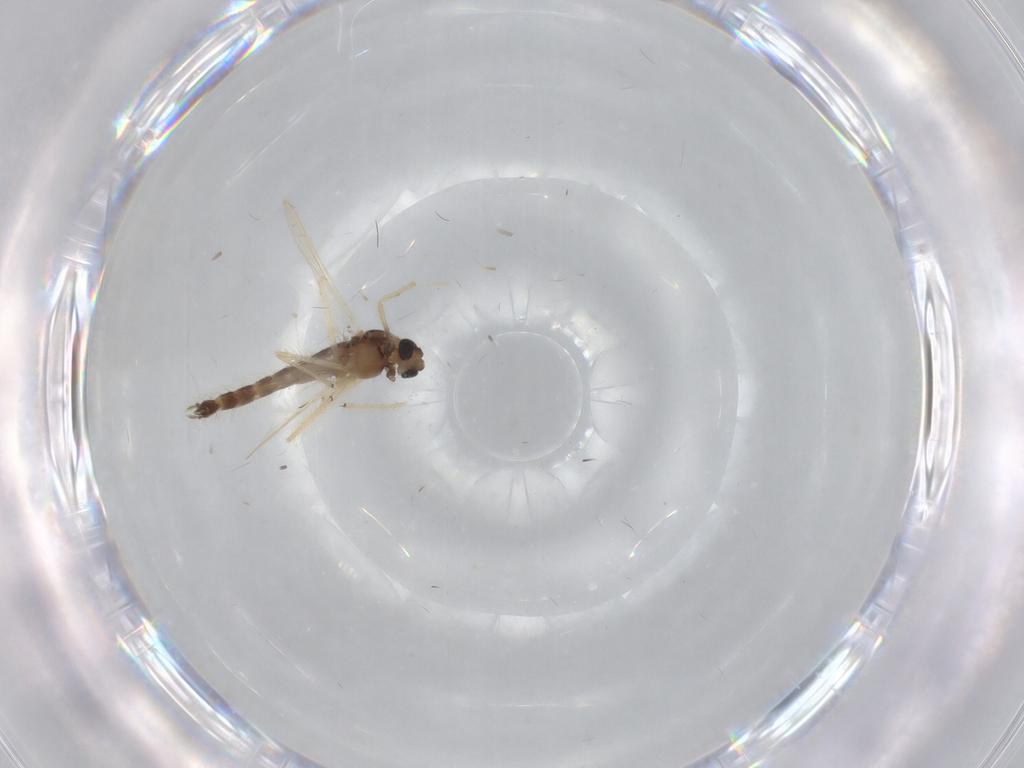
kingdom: Animalia
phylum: Arthropoda
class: Insecta
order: Diptera
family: Chironomidae
